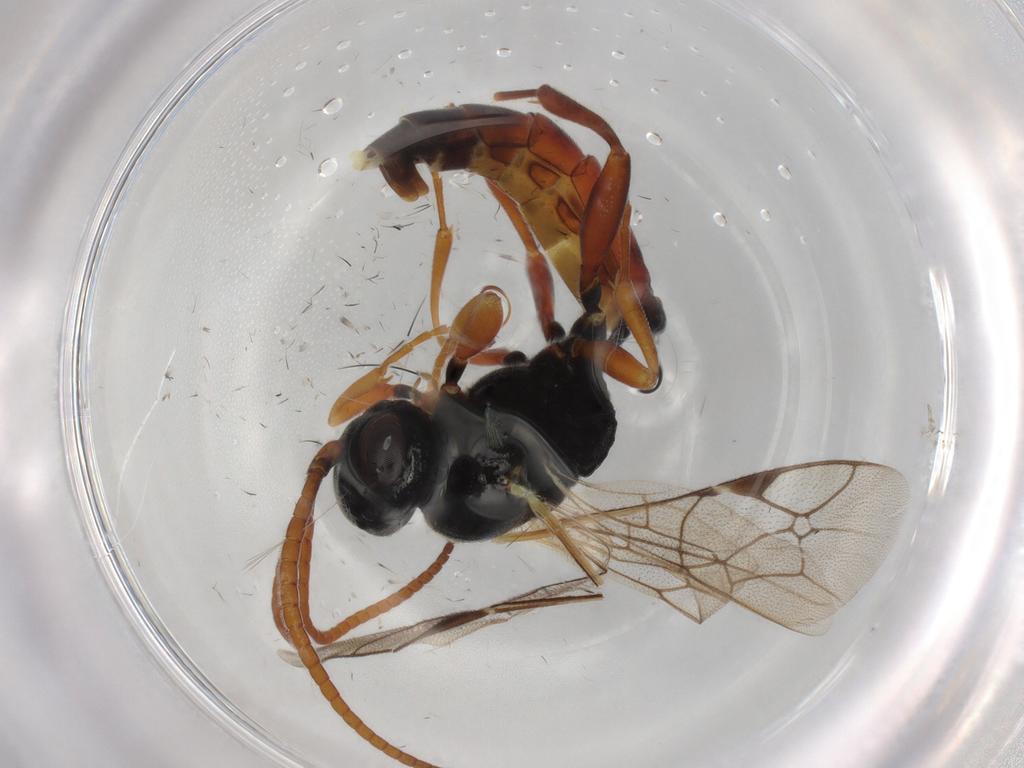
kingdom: Animalia
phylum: Arthropoda
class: Insecta
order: Hymenoptera
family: Ichneumonidae
